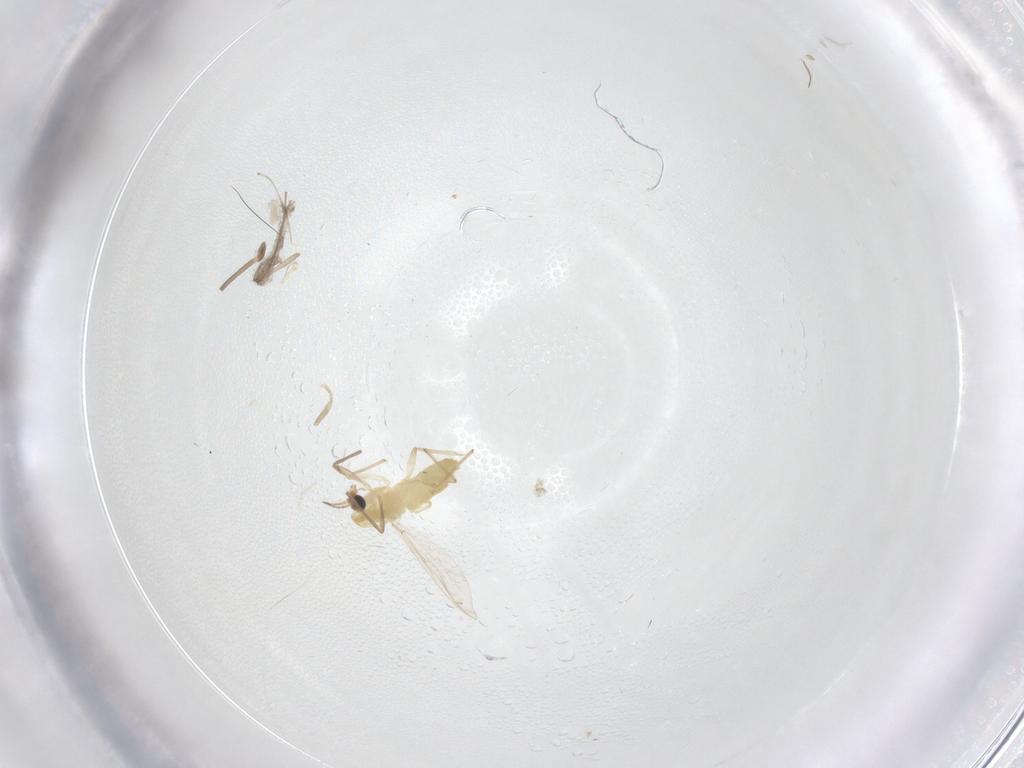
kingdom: Animalia
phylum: Arthropoda
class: Insecta
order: Diptera
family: Chironomidae
